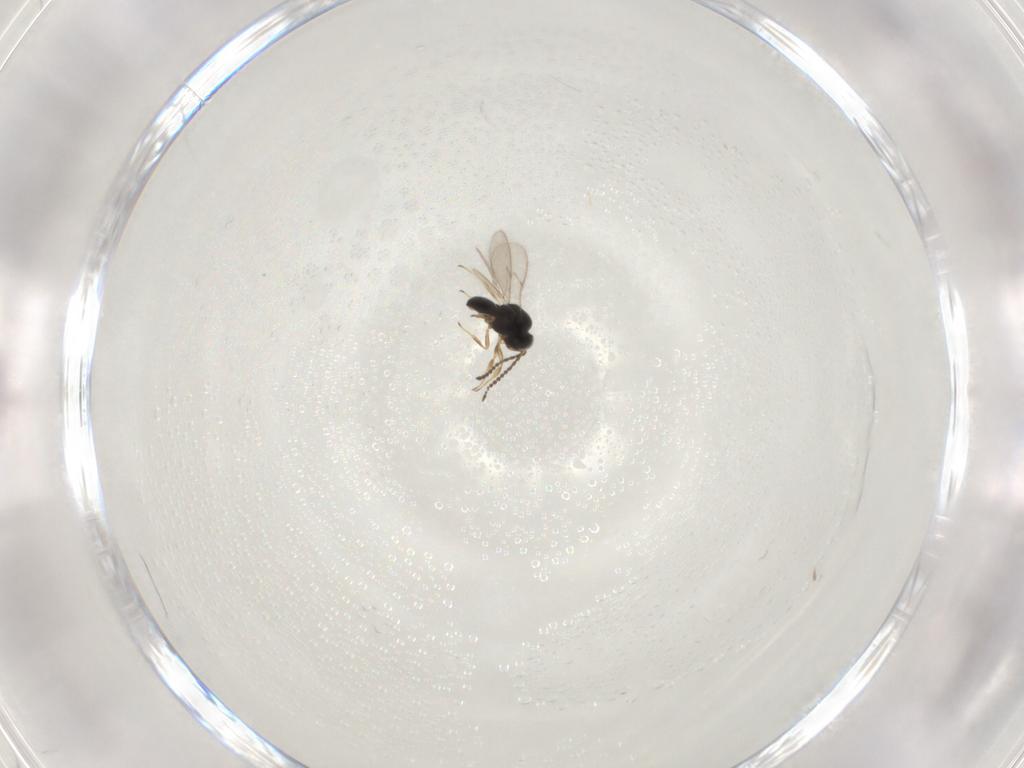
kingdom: Animalia
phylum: Arthropoda
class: Insecta
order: Hymenoptera
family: Scelionidae
